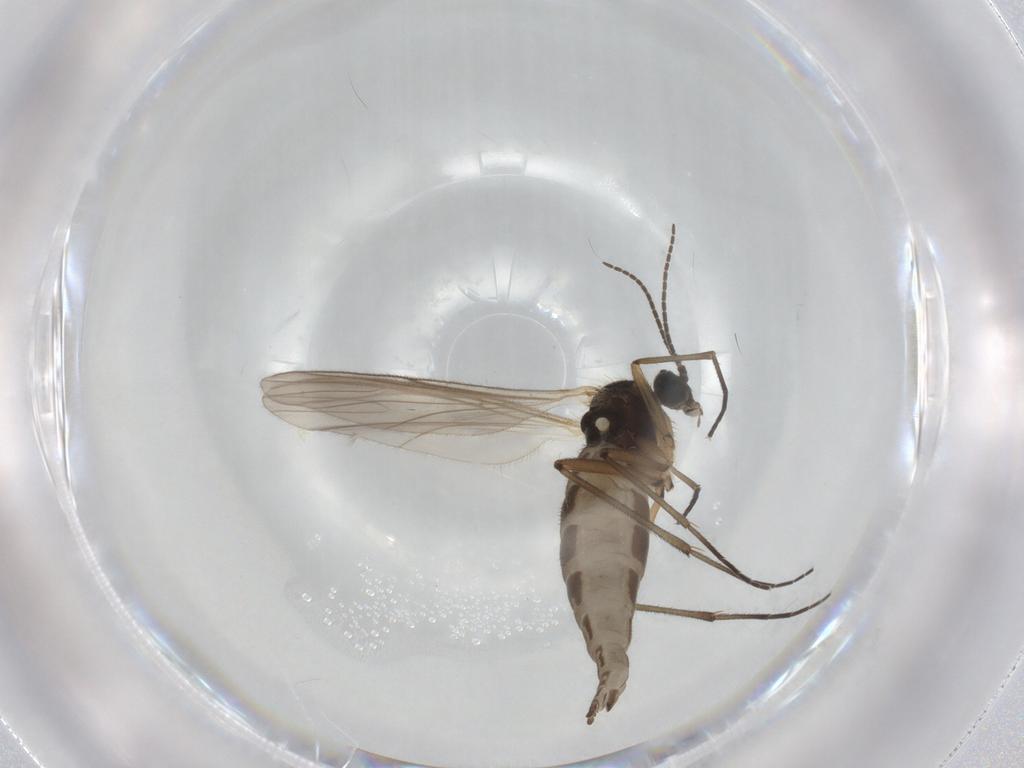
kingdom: Animalia
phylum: Arthropoda
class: Insecta
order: Diptera
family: Sciaridae
